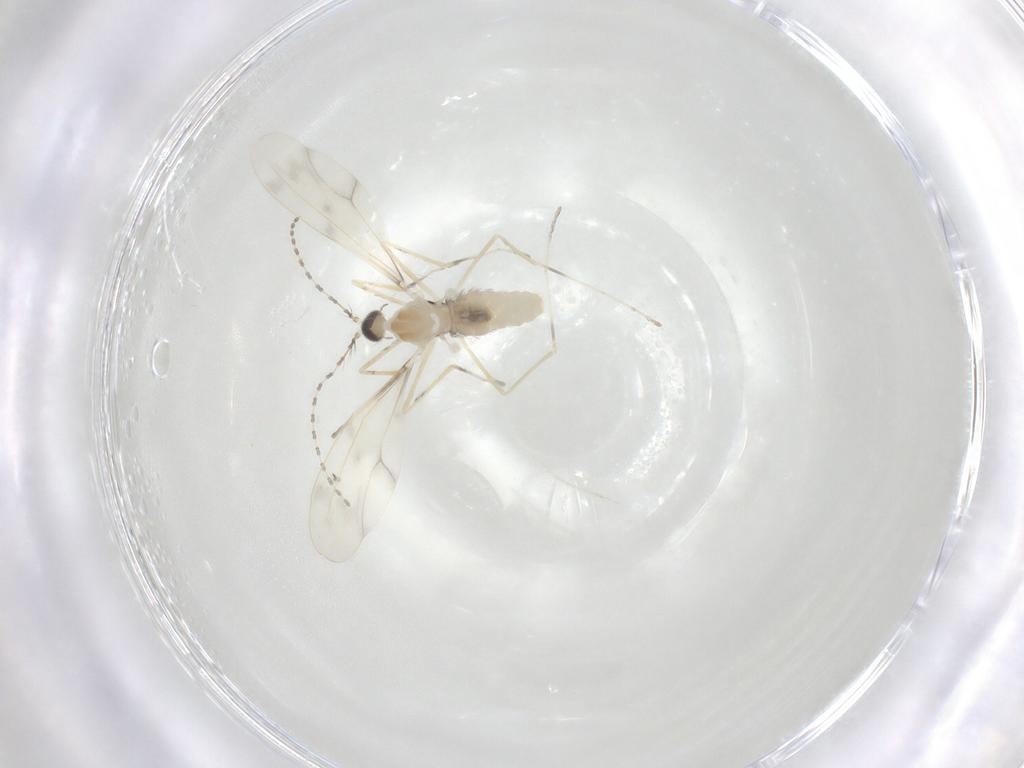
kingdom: Animalia
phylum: Arthropoda
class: Insecta
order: Diptera
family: Cecidomyiidae
